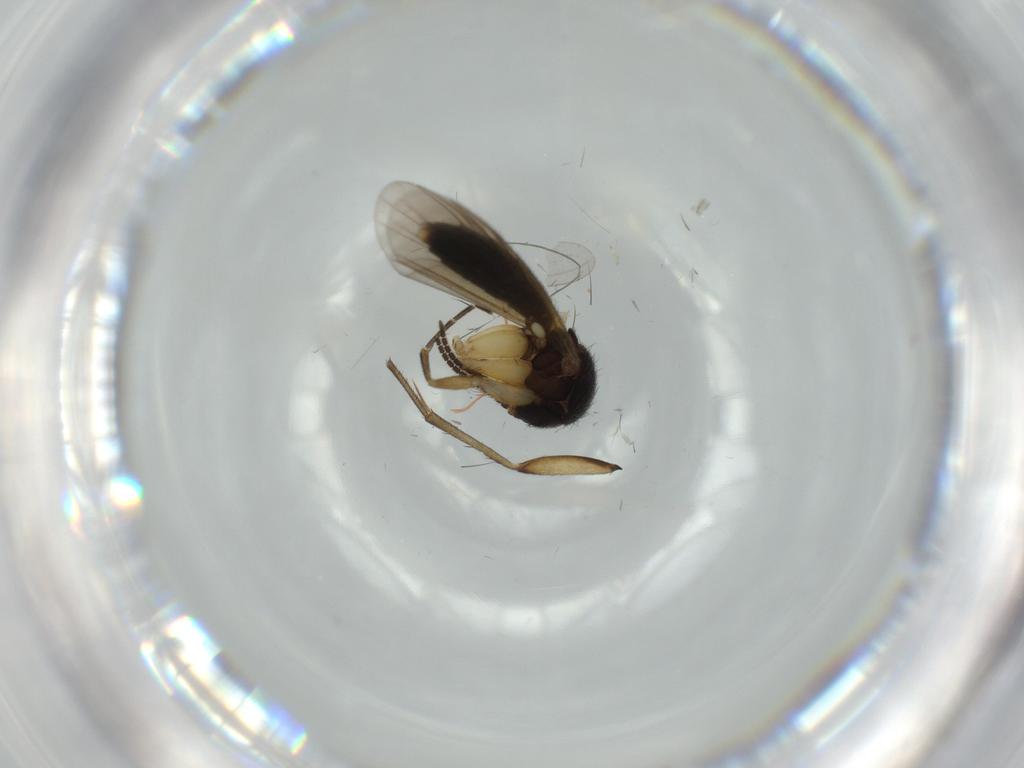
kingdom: Animalia
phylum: Arthropoda
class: Insecta
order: Diptera
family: Mycetophilidae
